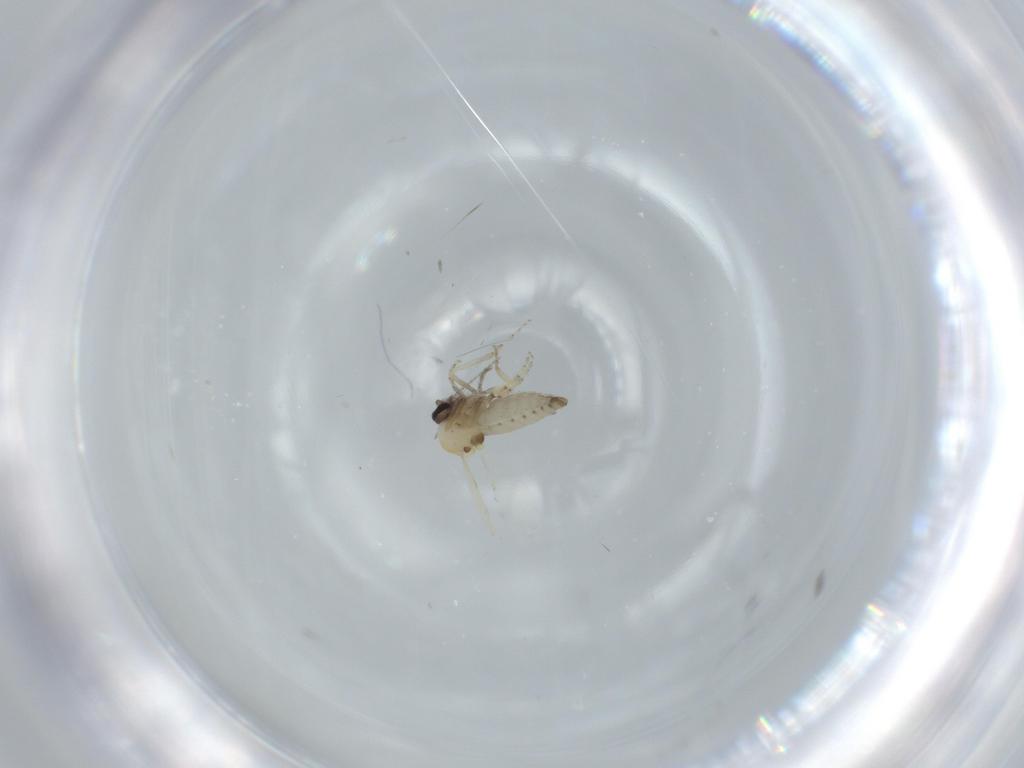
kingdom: Animalia
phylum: Arthropoda
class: Insecta
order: Diptera
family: Ceratopogonidae
